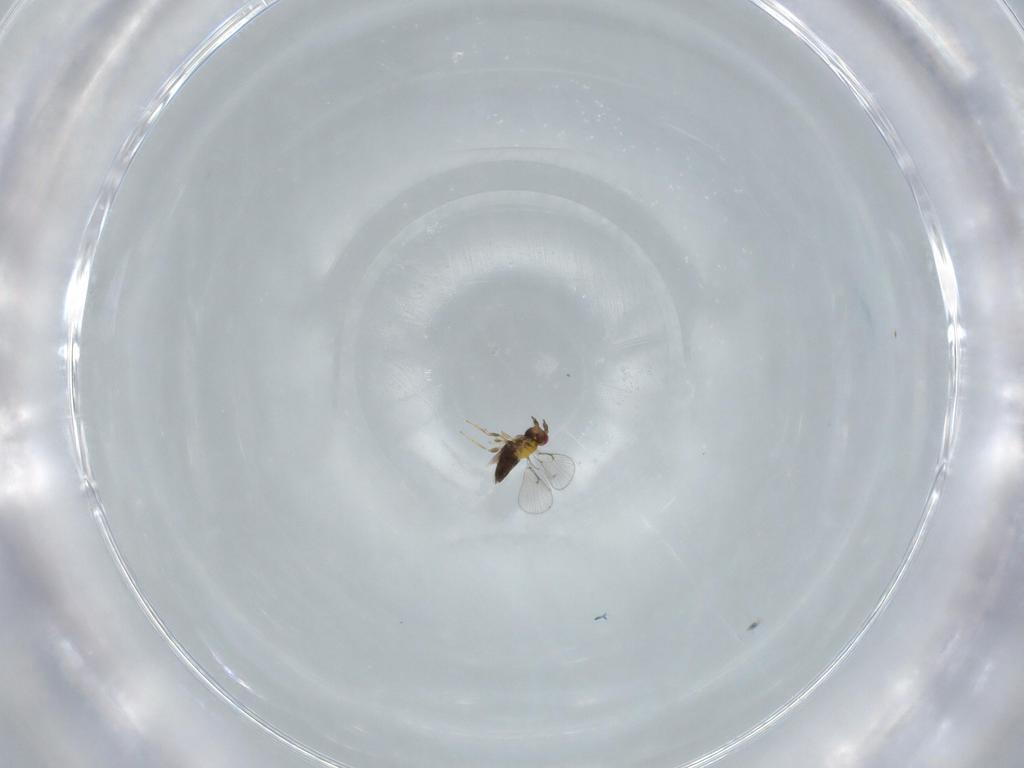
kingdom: Animalia
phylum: Arthropoda
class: Insecta
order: Hymenoptera
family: Trichogrammatidae
